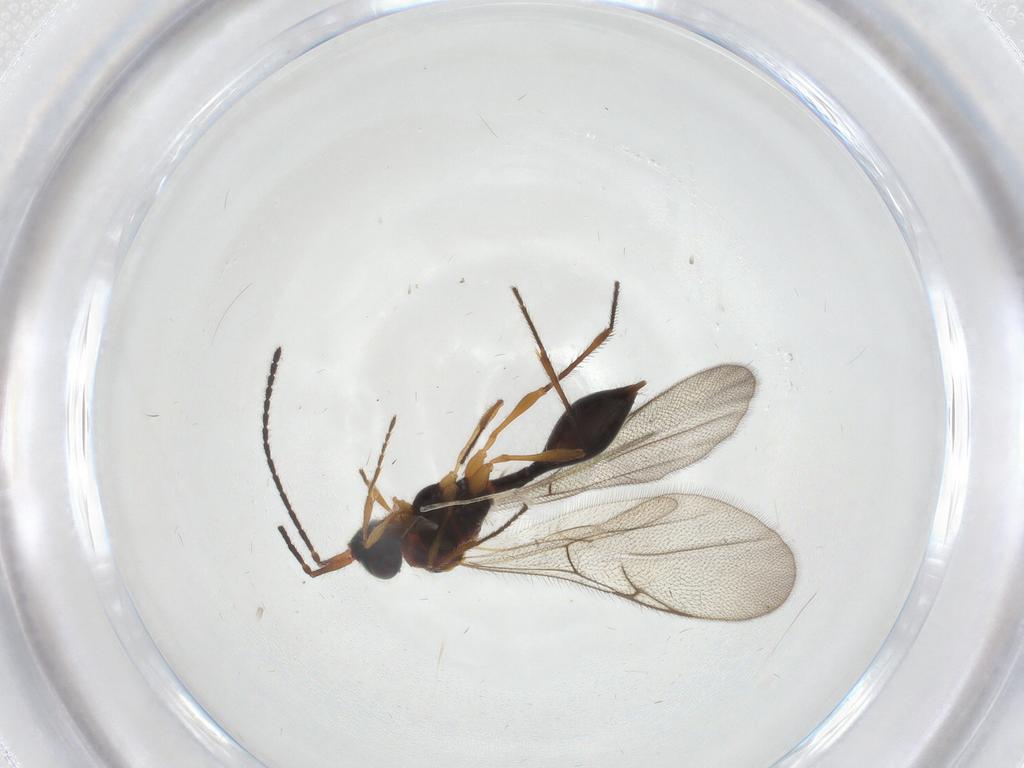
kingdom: Animalia
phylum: Arthropoda
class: Insecta
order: Hymenoptera
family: Diapriidae
